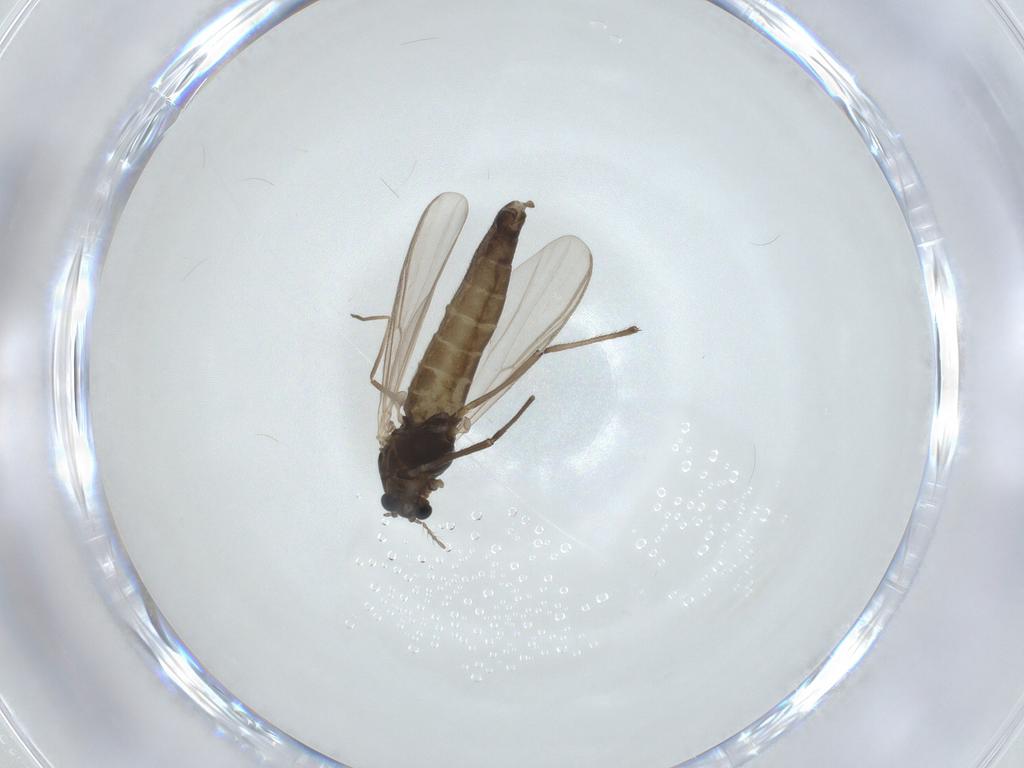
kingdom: Animalia
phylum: Arthropoda
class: Insecta
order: Diptera
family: Chironomidae
